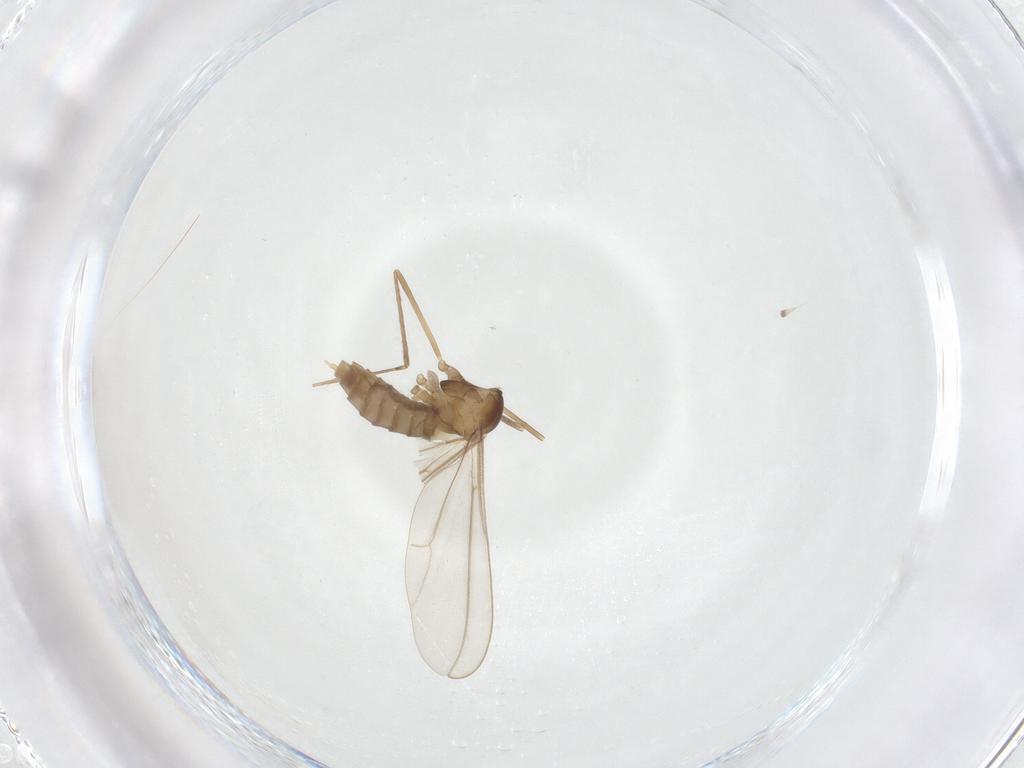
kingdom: Animalia
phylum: Arthropoda
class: Insecta
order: Diptera
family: Cecidomyiidae
